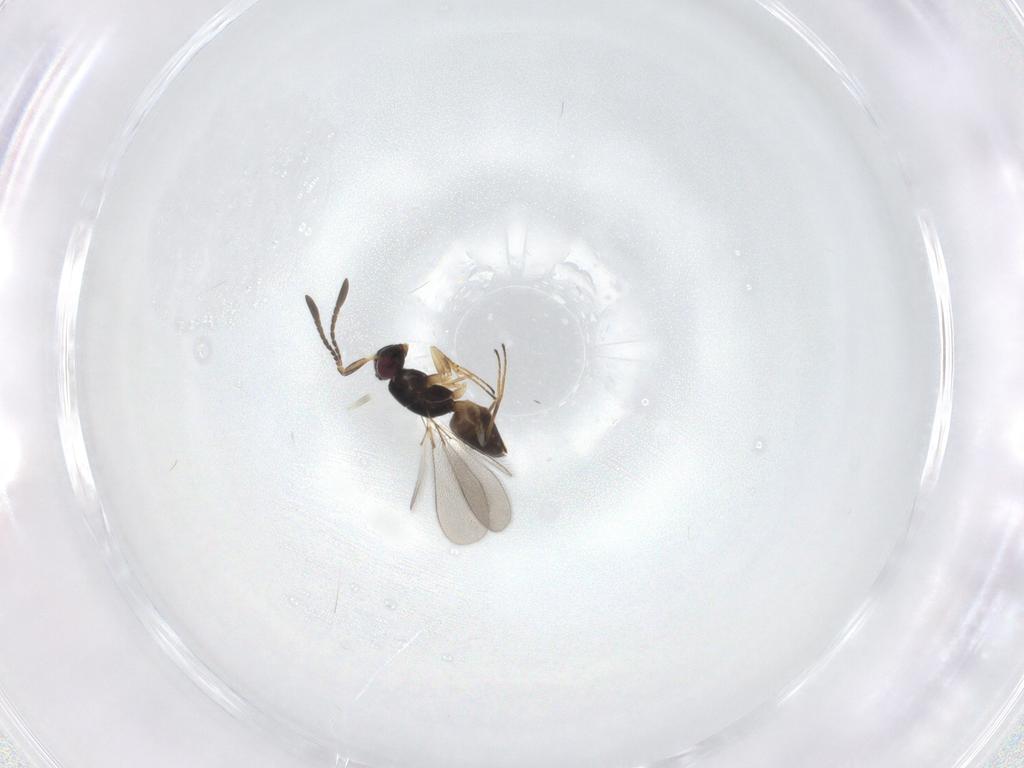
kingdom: Animalia
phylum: Arthropoda
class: Insecta
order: Hymenoptera
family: Mymaridae
